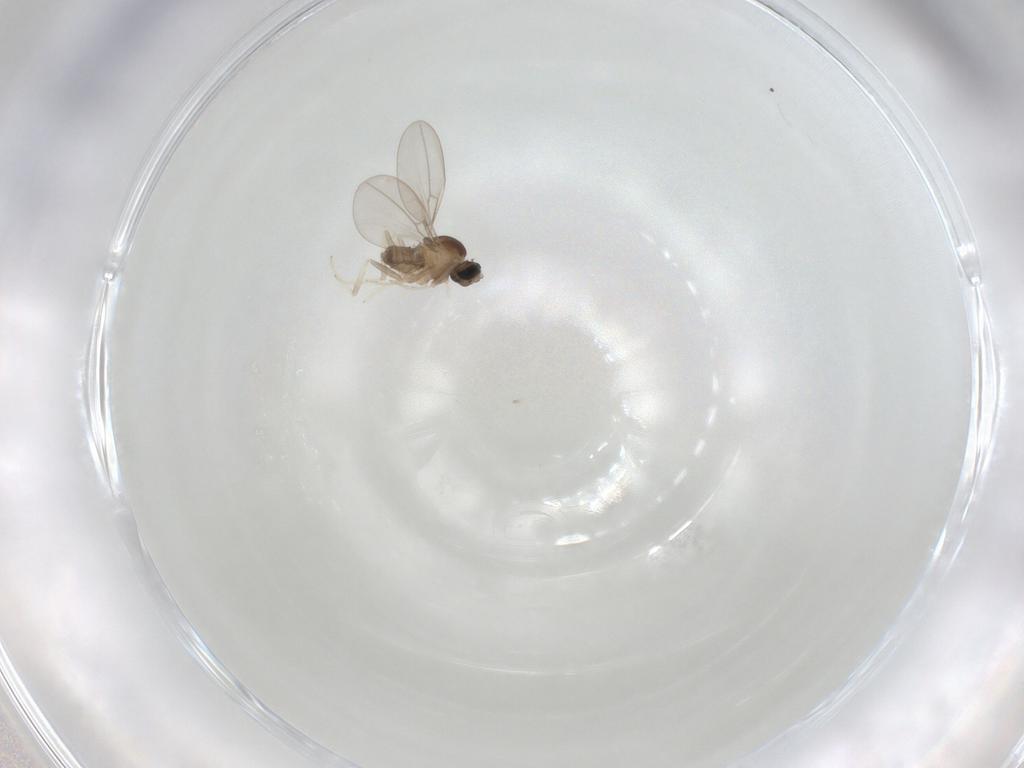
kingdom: Animalia
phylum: Arthropoda
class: Insecta
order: Diptera
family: Cecidomyiidae
